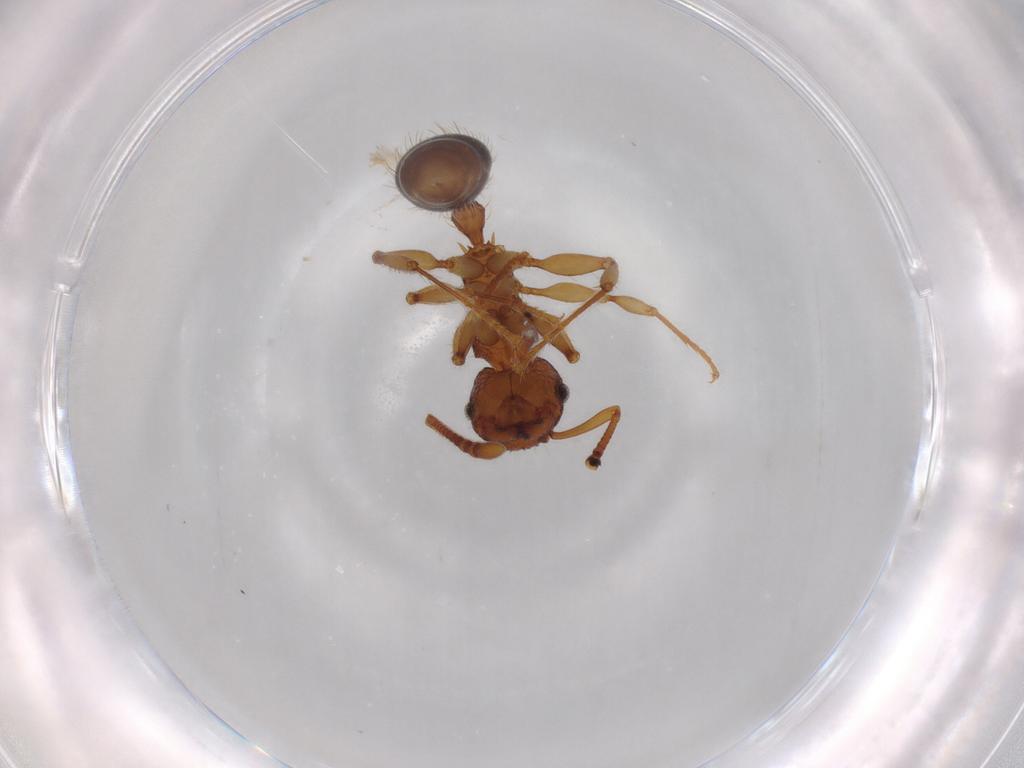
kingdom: Animalia
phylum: Arthropoda
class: Insecta
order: Hymenoptera
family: Formicidae
